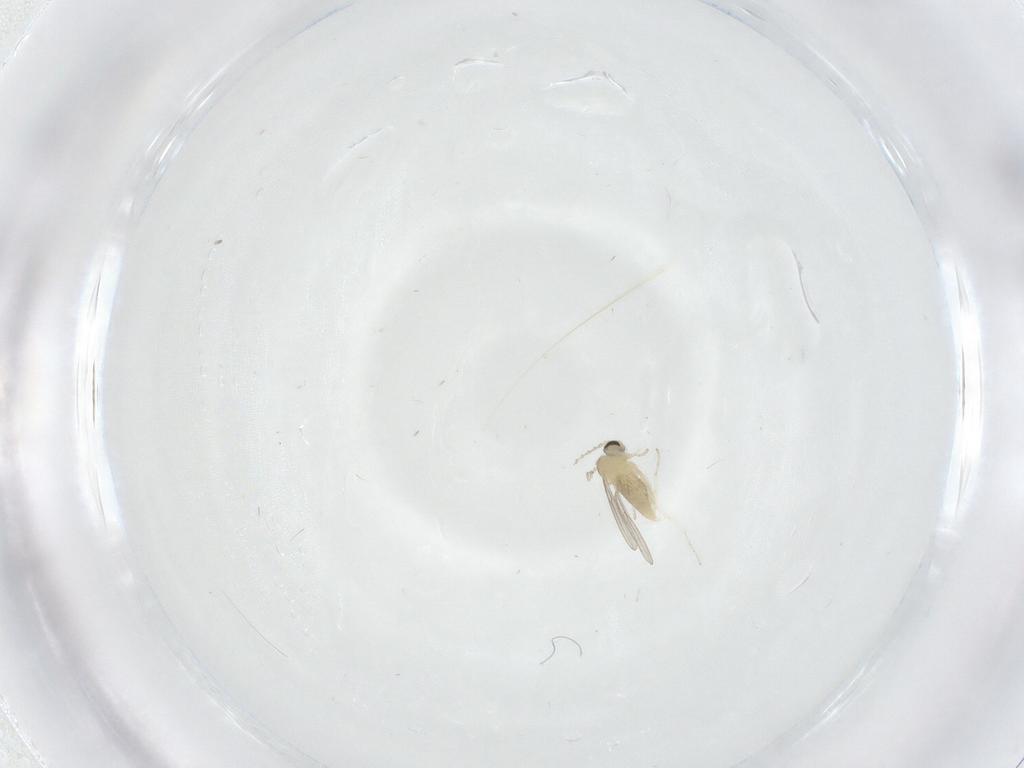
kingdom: Animalia
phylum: Arthropoda
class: Insecta
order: Diptera
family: Cecidomyiidae
